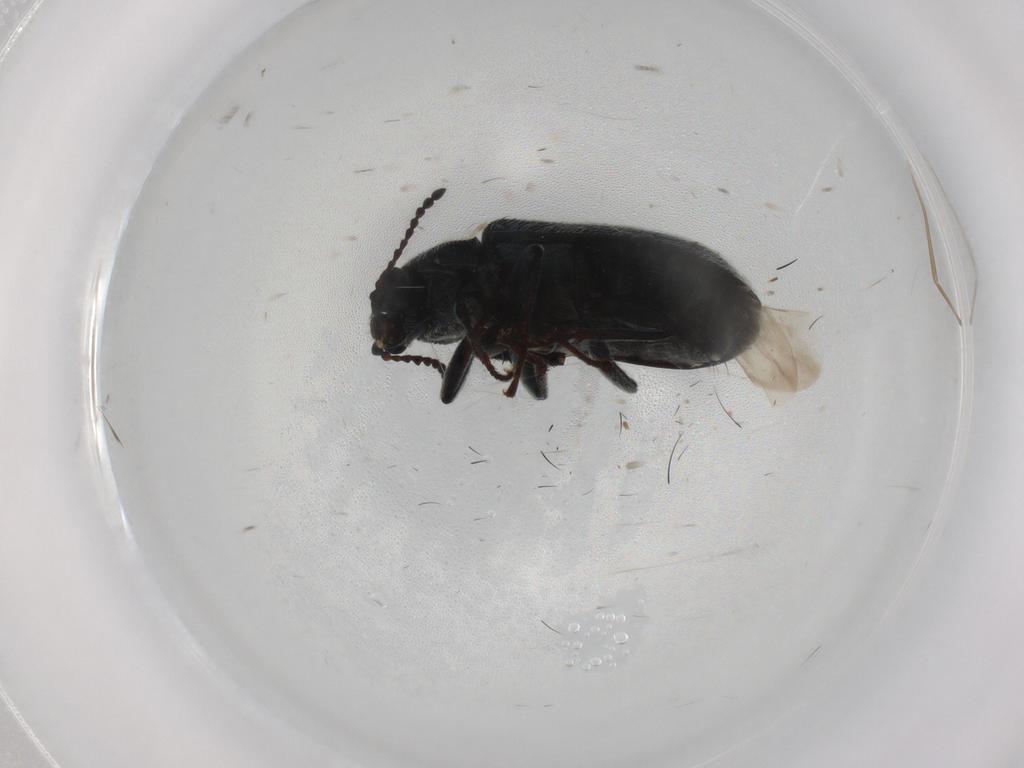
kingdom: Animalia
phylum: Arthropoda
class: Insecta
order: Coleoptera
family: Melyridae
